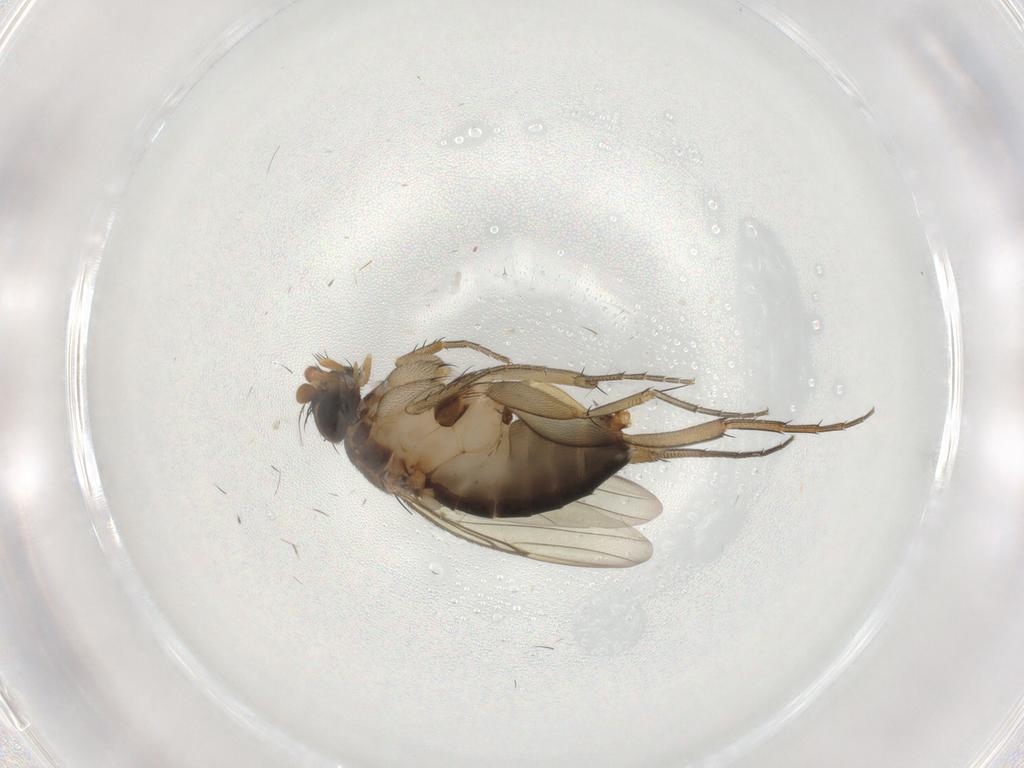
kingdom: Animalia
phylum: Arthropoda
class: Insecta
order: Diptera
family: Phoridae
